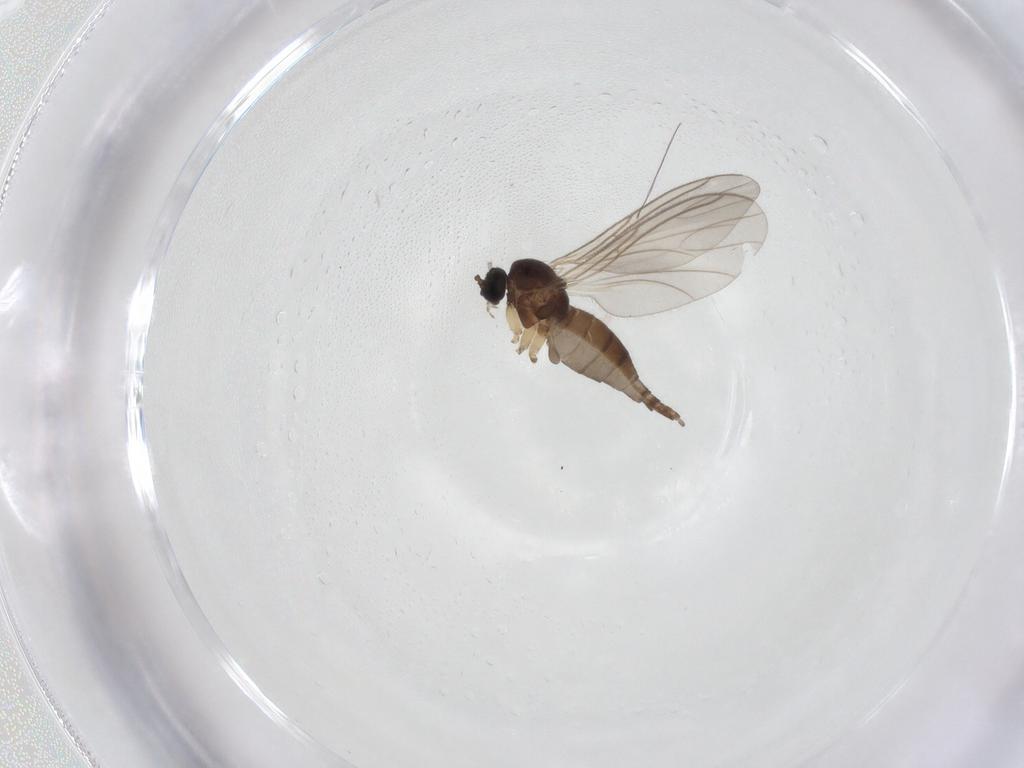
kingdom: Animalia
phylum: Arthropoda
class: Insecta
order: Diptera
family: Sciaridae
